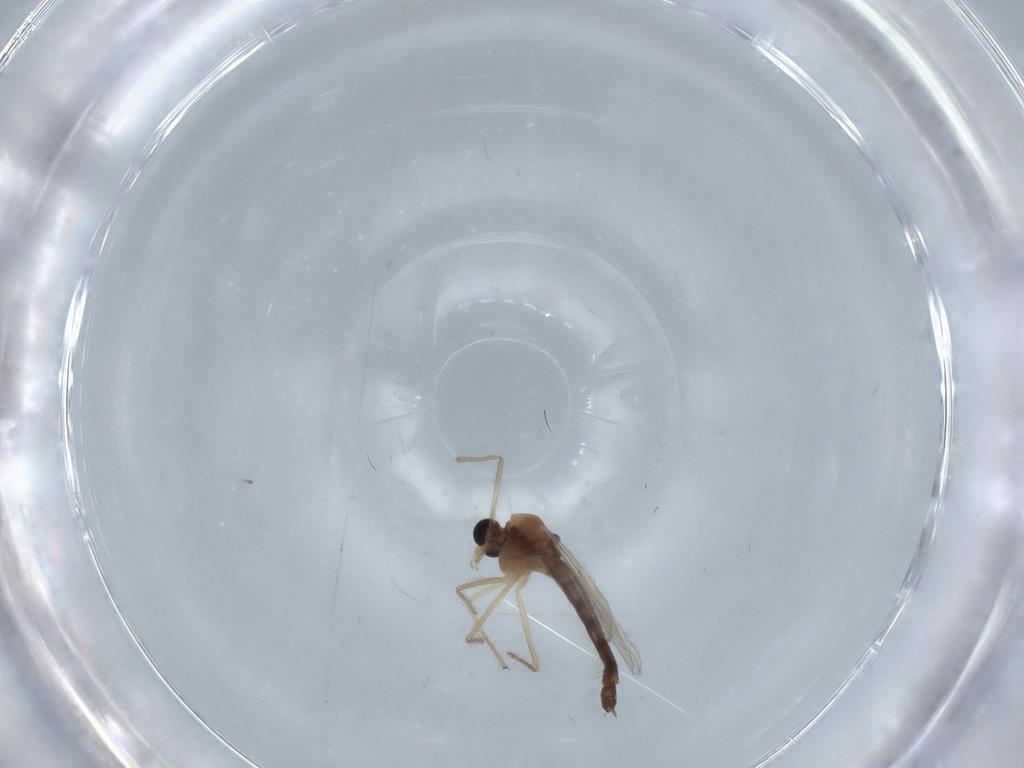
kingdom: Animalia
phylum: Arthropoda
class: Insecta
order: Diptera
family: Chironomidae
